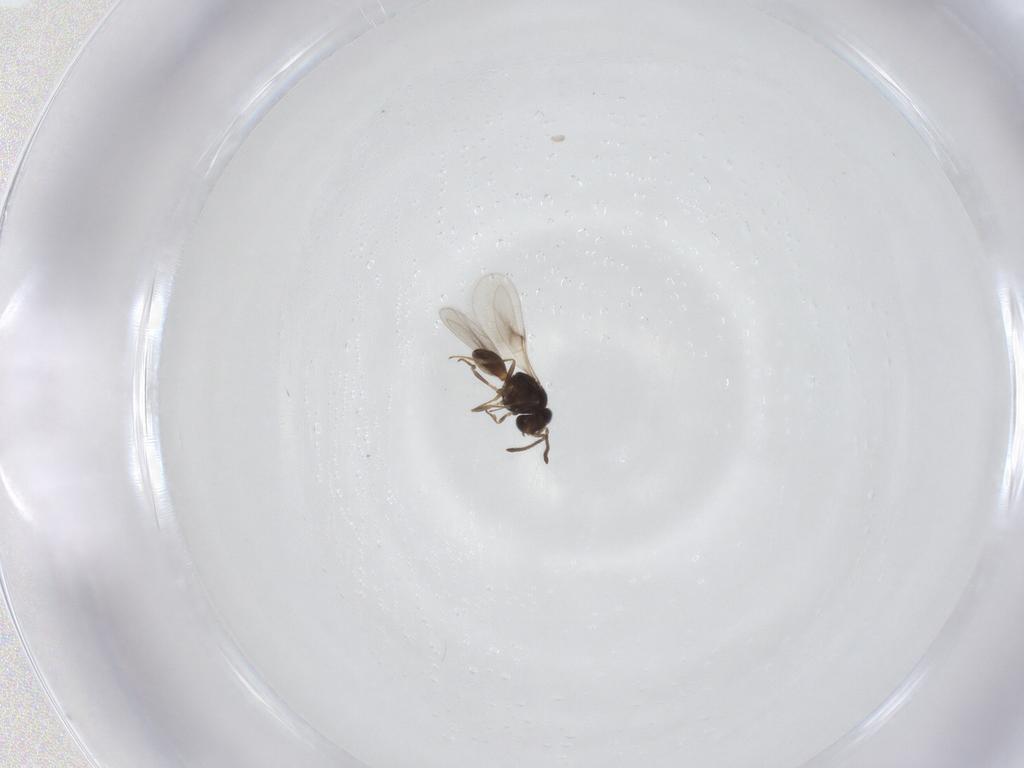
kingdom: Animalia
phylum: Arthropoda
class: Insecta
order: Hymenoptera
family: Scelionidae
